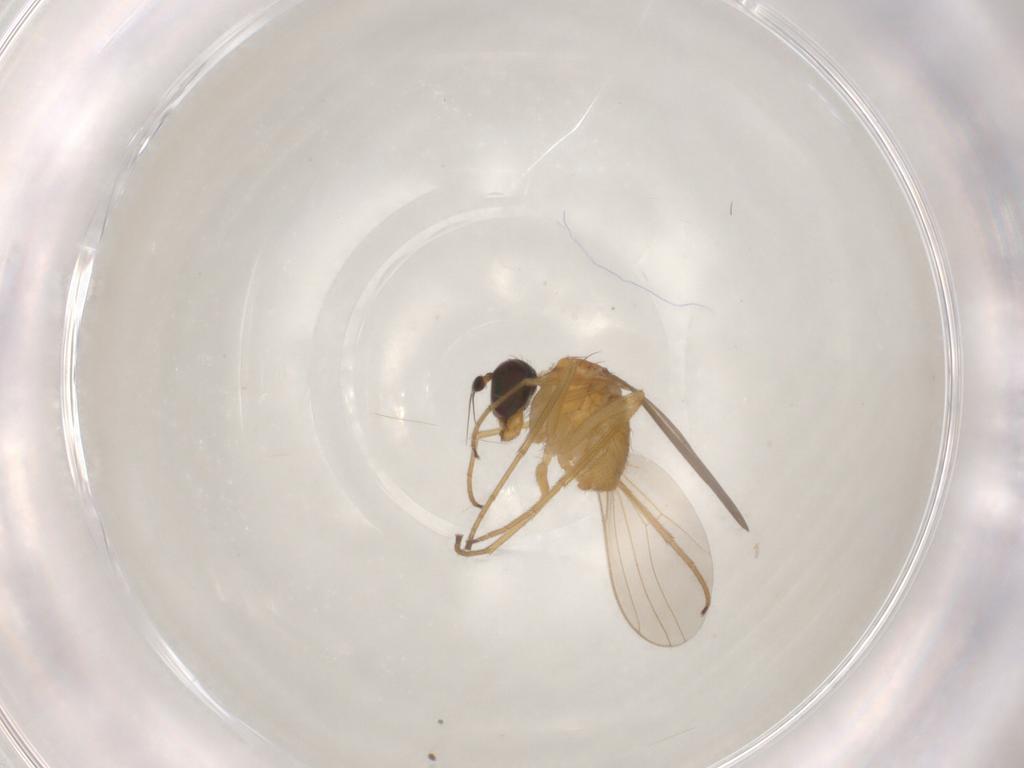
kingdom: Animalia
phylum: Arthropoda
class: Insecta
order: Diptera
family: Dolichopodidae
